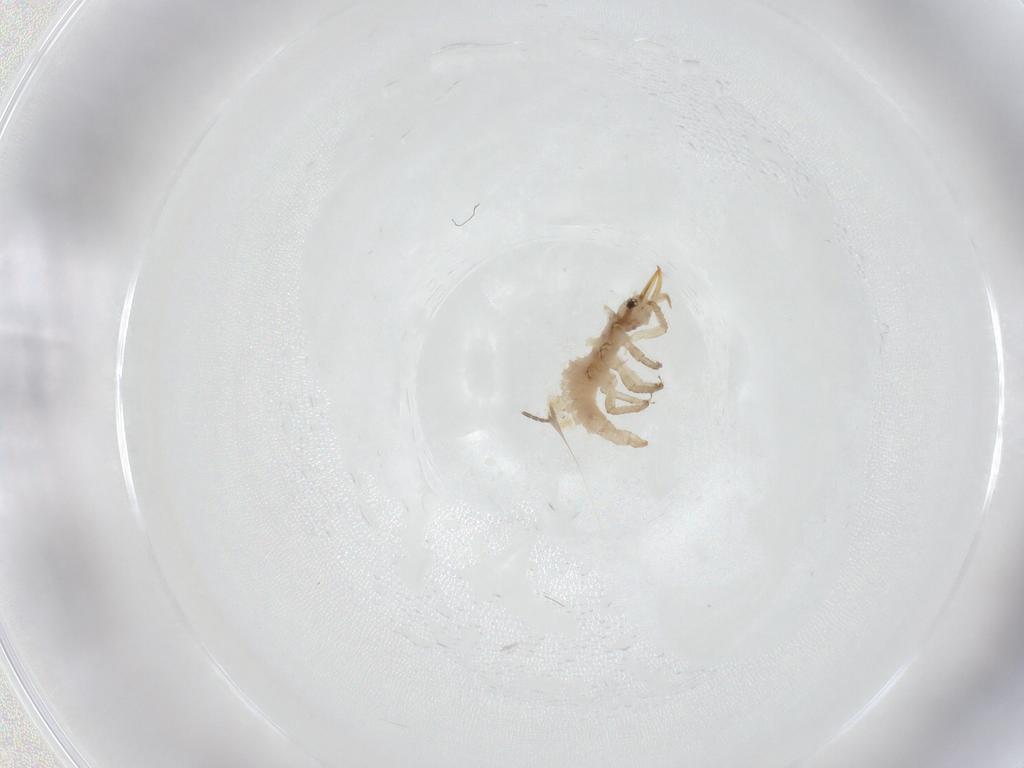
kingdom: Animalia
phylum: Arthropoda
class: Insecta
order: Neuroptera
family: Chrysopidae
